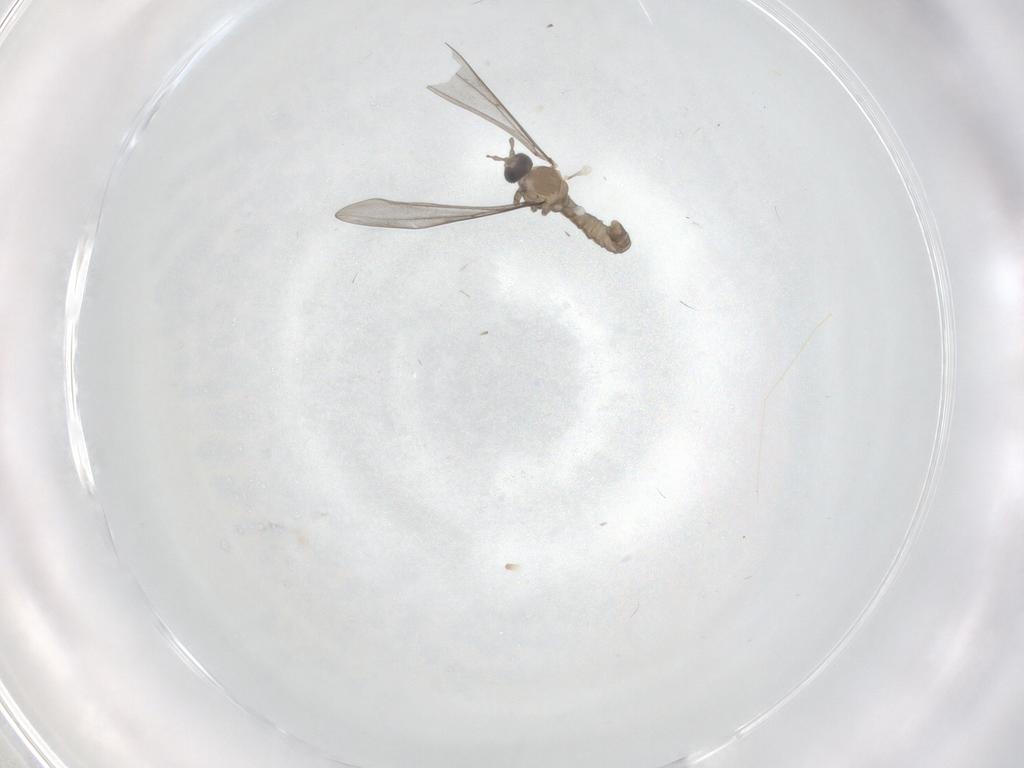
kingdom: Animalia
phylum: Arthropoda
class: Insecta
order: Diptera
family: Cecidomyiidae
